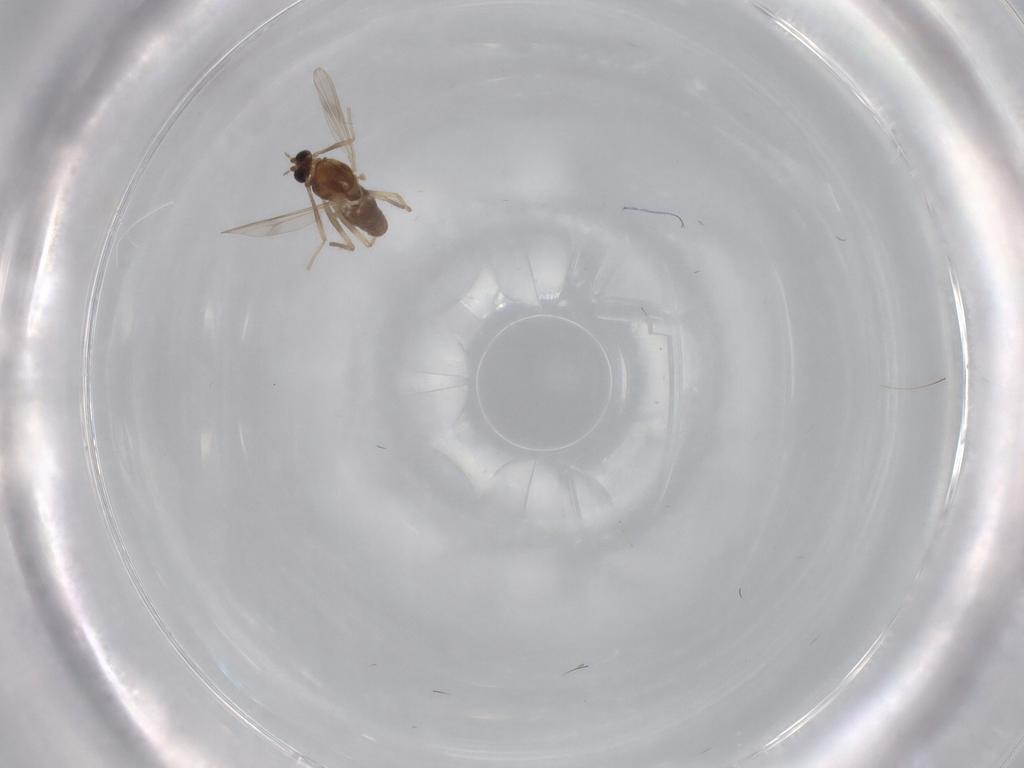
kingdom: Animalia
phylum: Arthropoda
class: Insecta
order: Diptera
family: Chironomidae
